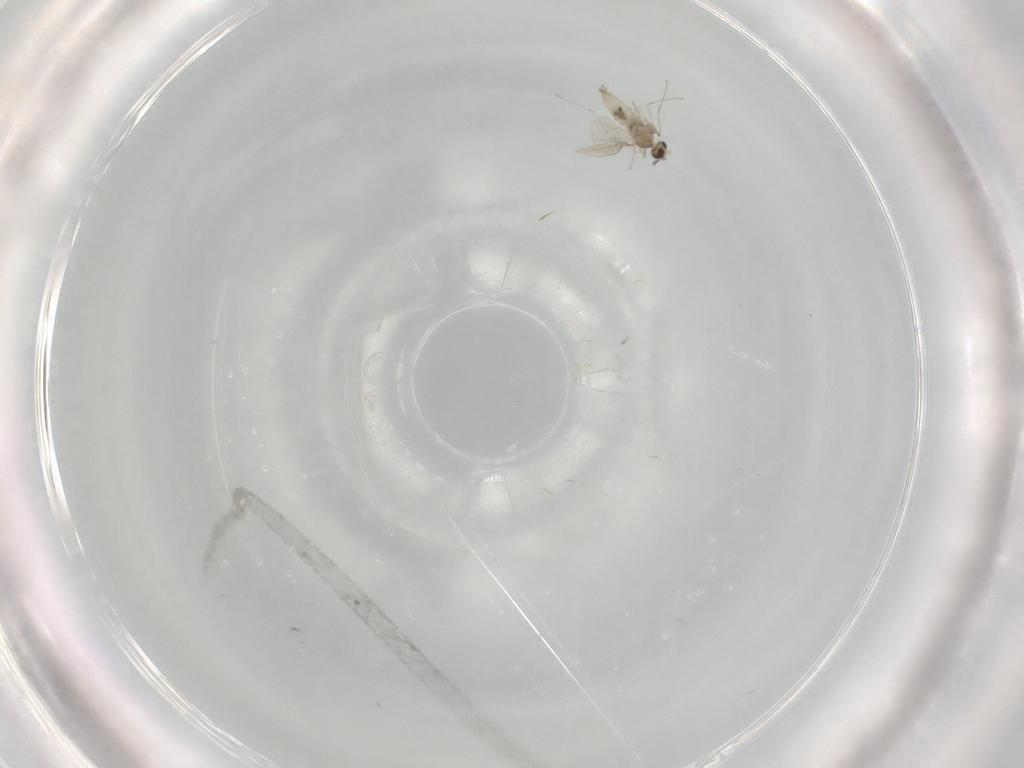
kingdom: Animalia
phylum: Arthropoda
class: Insecta
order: Diptera
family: Cecidomyiidae
